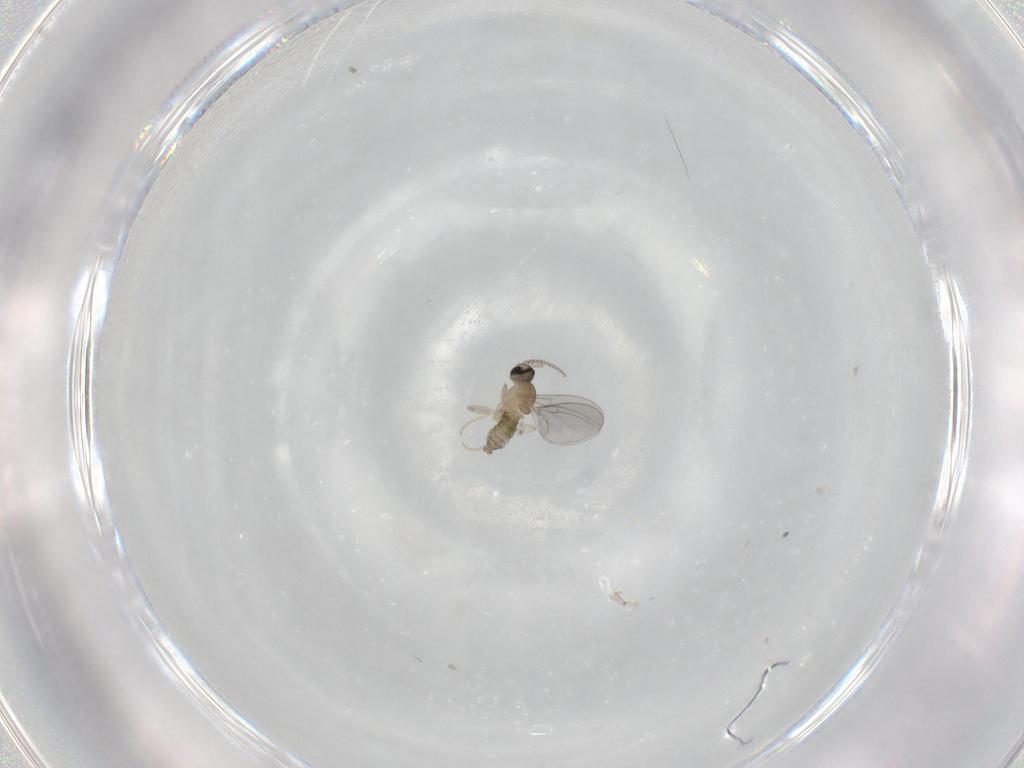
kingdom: Animalia
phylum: Arthropoda
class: Insecta
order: Diptera
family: Cecidomyiidae
